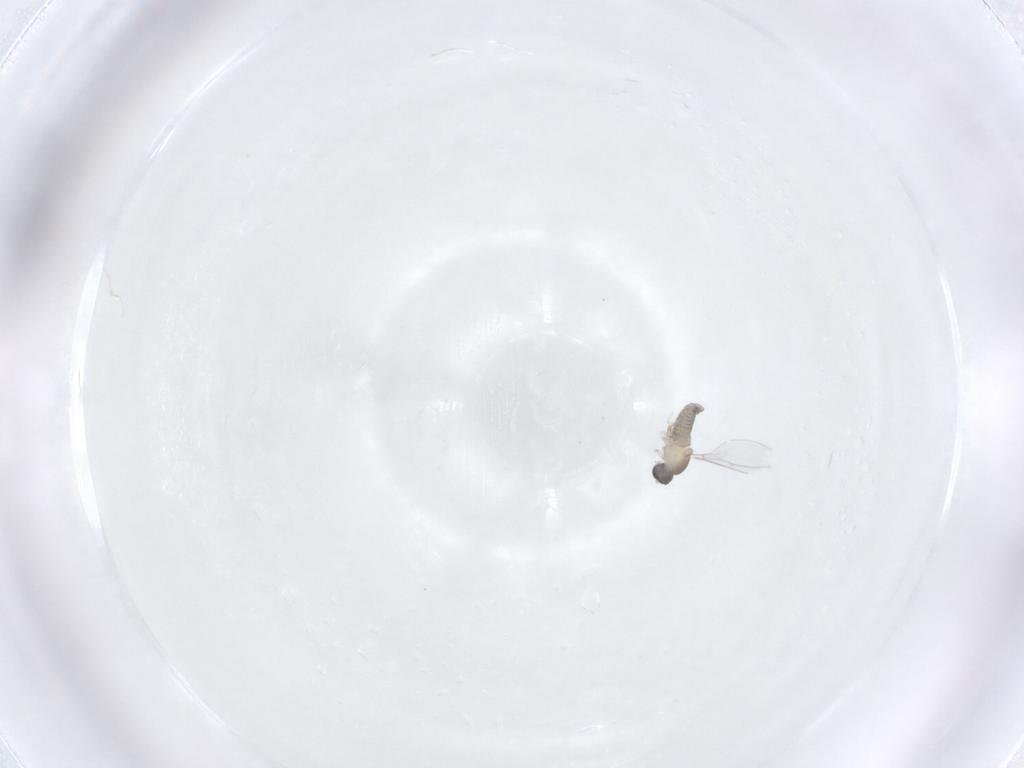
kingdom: Animalia
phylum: Arthropoda
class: Insecta
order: Diptera
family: Cecidomyiidae
